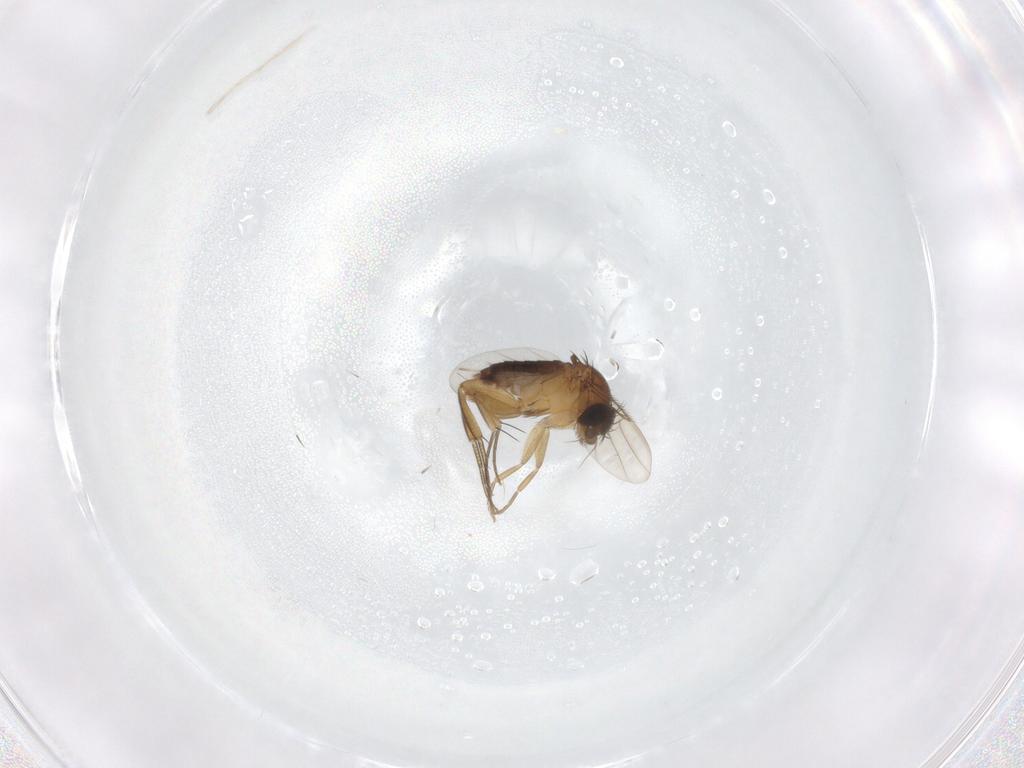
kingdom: Animalia
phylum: Arthropoda
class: Insecta
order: Diptera
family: Phoridae
